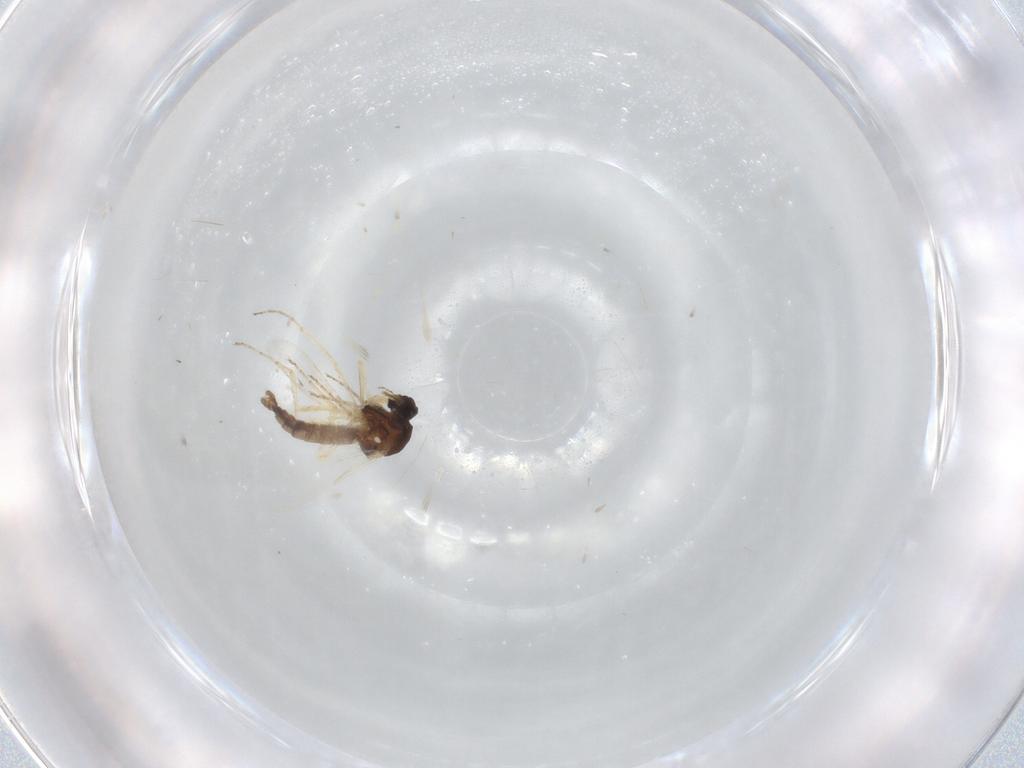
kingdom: Animalia
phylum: Arthropoda
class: Insecta
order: Diptera
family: Ceratopogonidae
